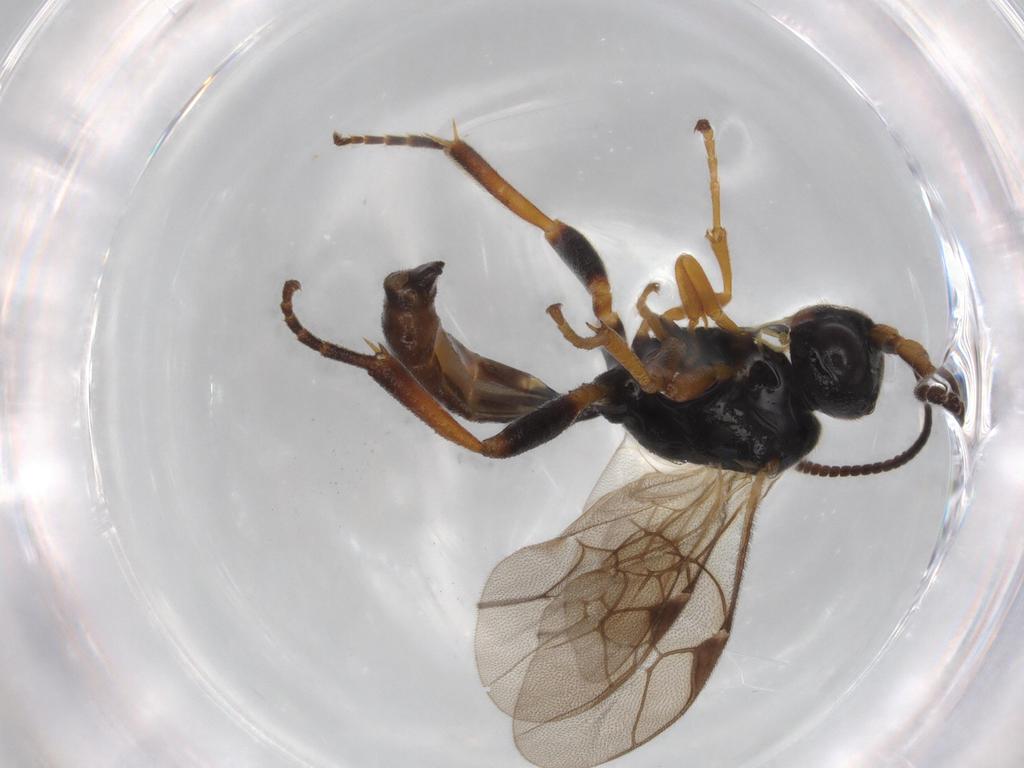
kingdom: Animalia
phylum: Arthropoda
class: Insecta
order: Hymenoptera
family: Ichneumonidae
